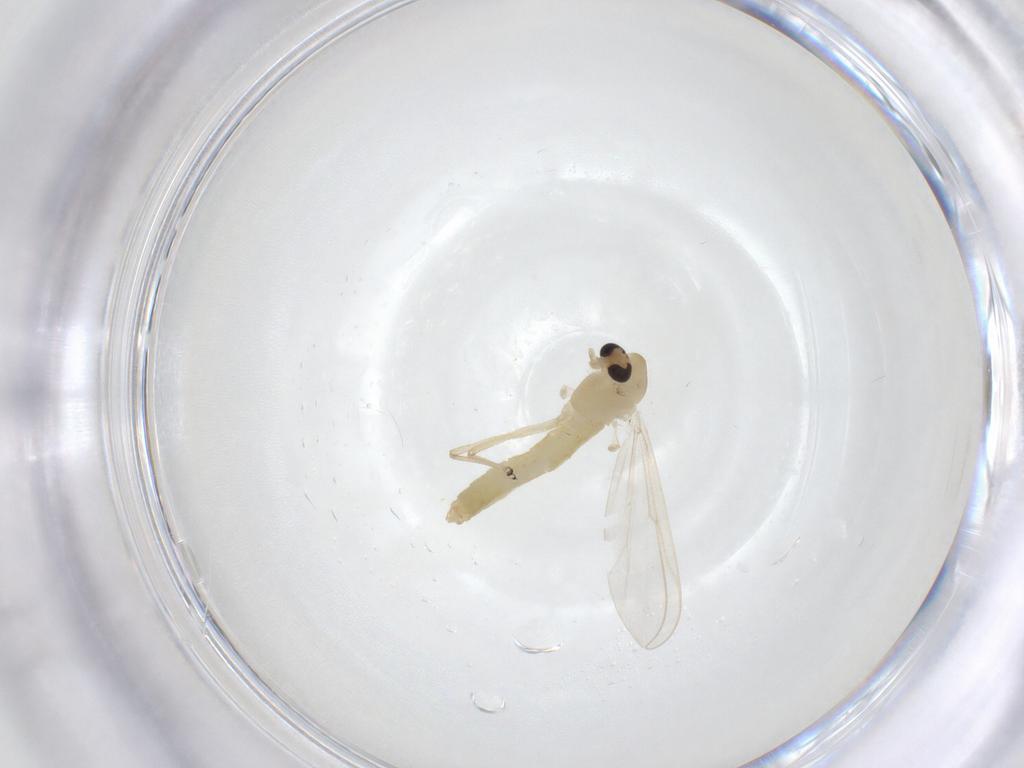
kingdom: Animalia
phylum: Arthropoda
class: Insecta
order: Diptera
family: Chironomidae
